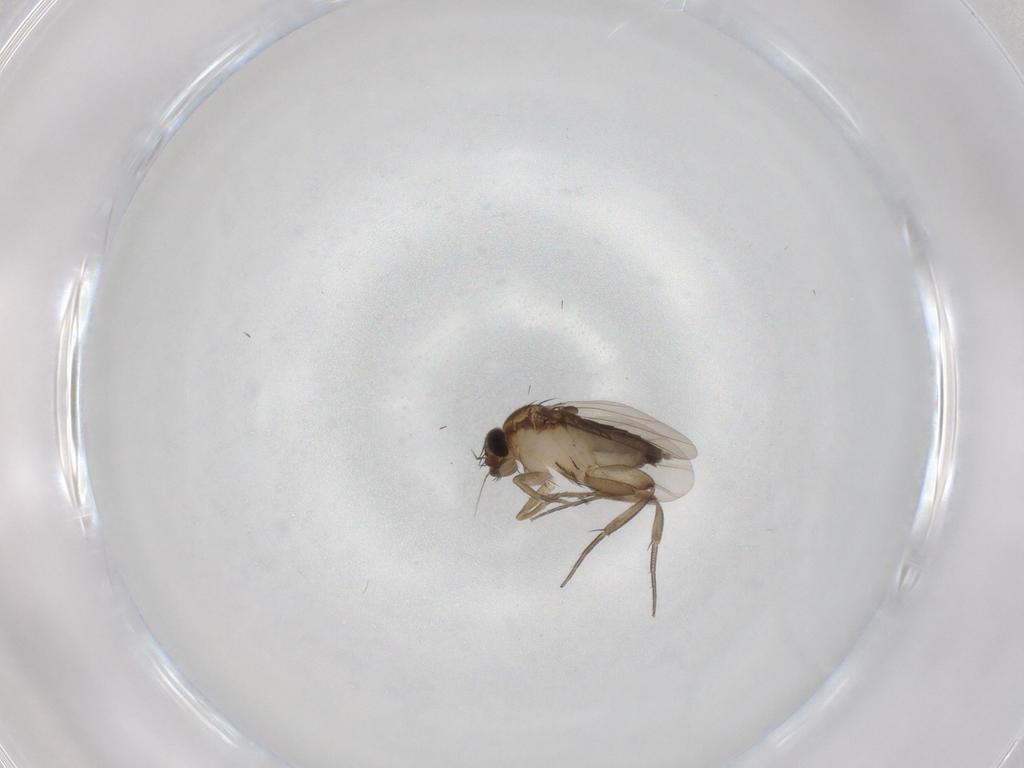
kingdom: Animalia
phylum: Arthropoda
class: Insecta
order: Diptera
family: Phoridae
